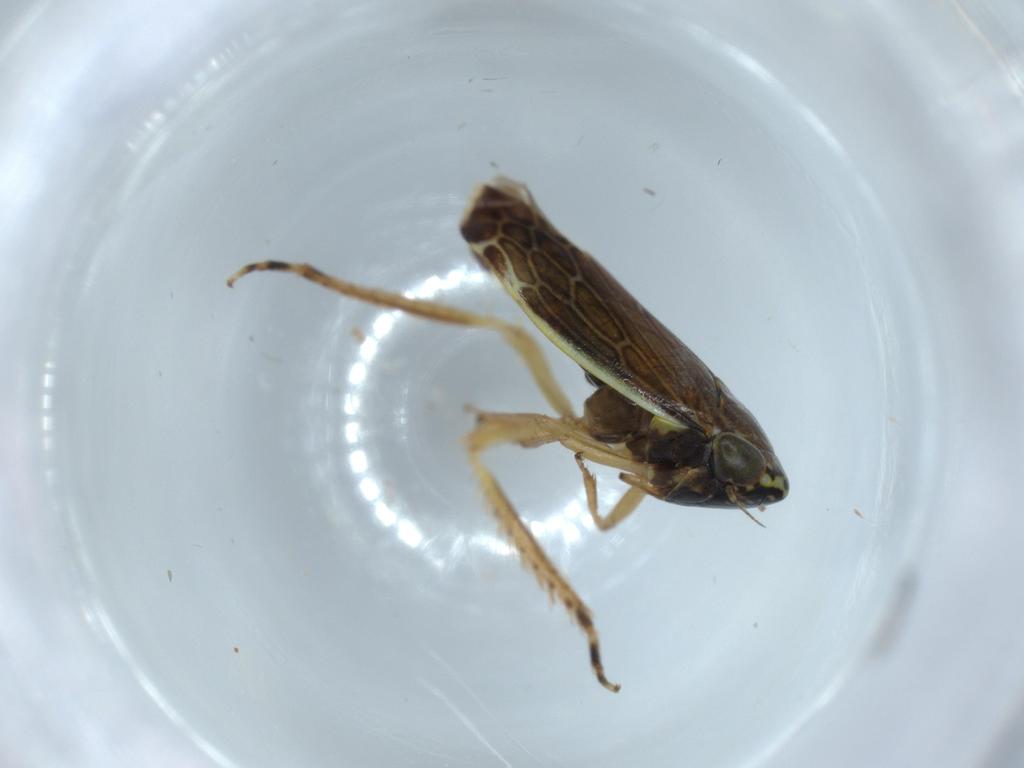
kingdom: Animalia
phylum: Arthropoda
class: Insecta
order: Hemiptera
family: Cicadellidae
